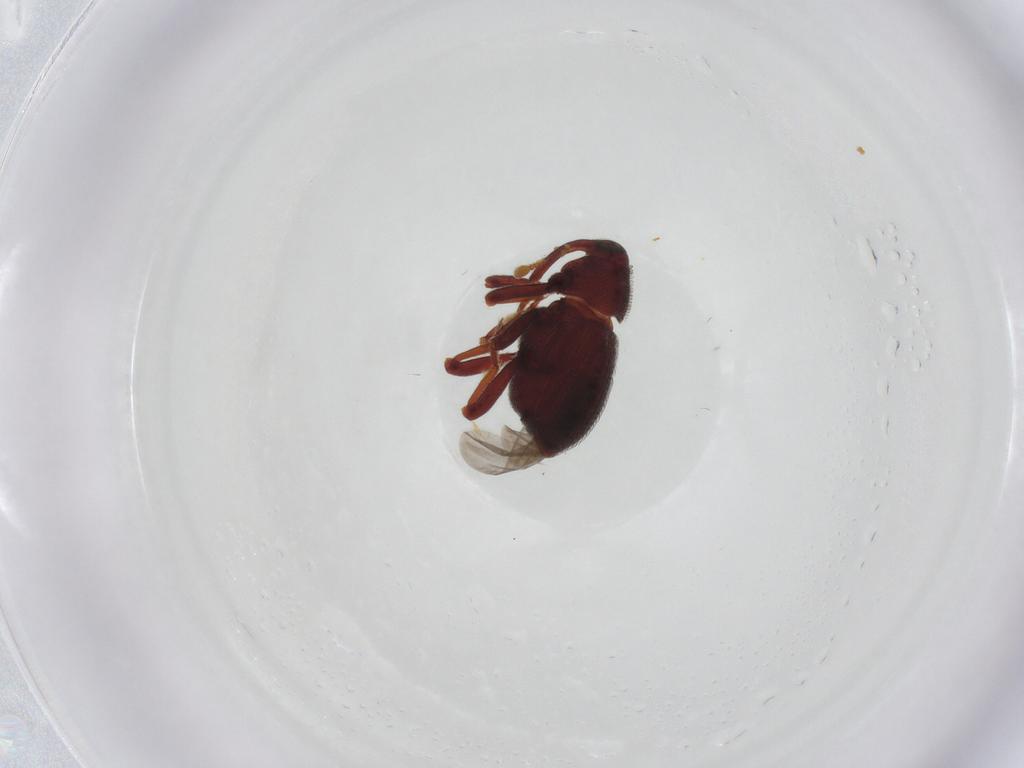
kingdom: Animalia
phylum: Arthropoda
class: Insecta
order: Coleoptera
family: Curculionidae
